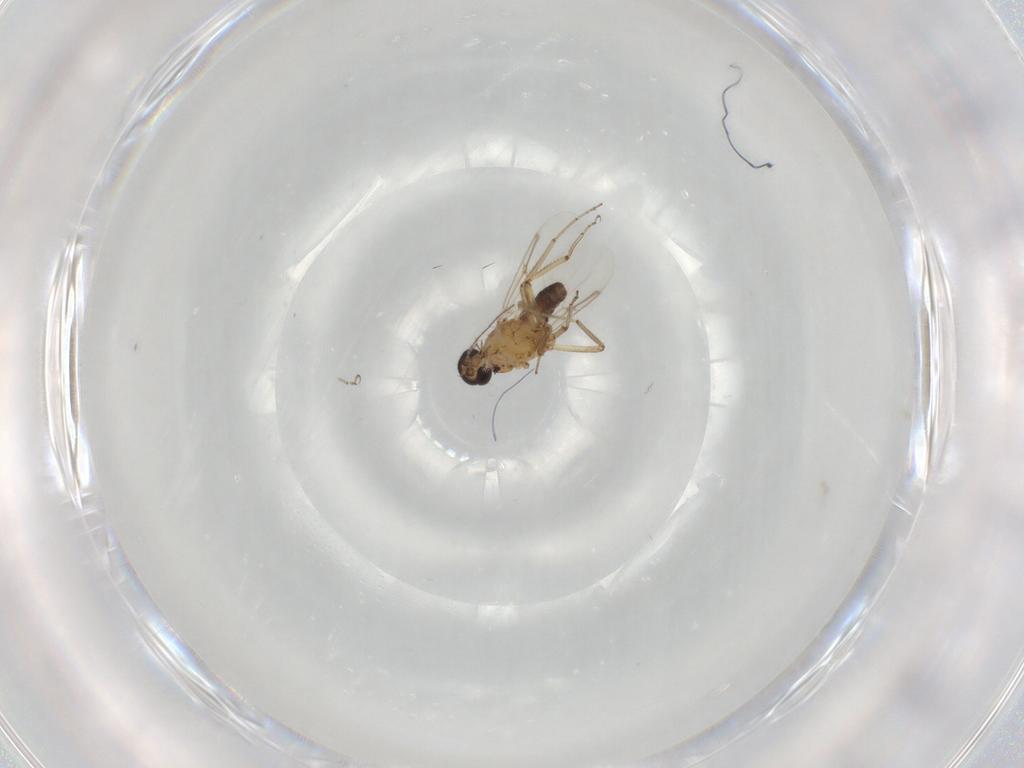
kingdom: Animalia
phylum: Arthropoda
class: Insecta
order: Diptera
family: Ceratopogonidae
